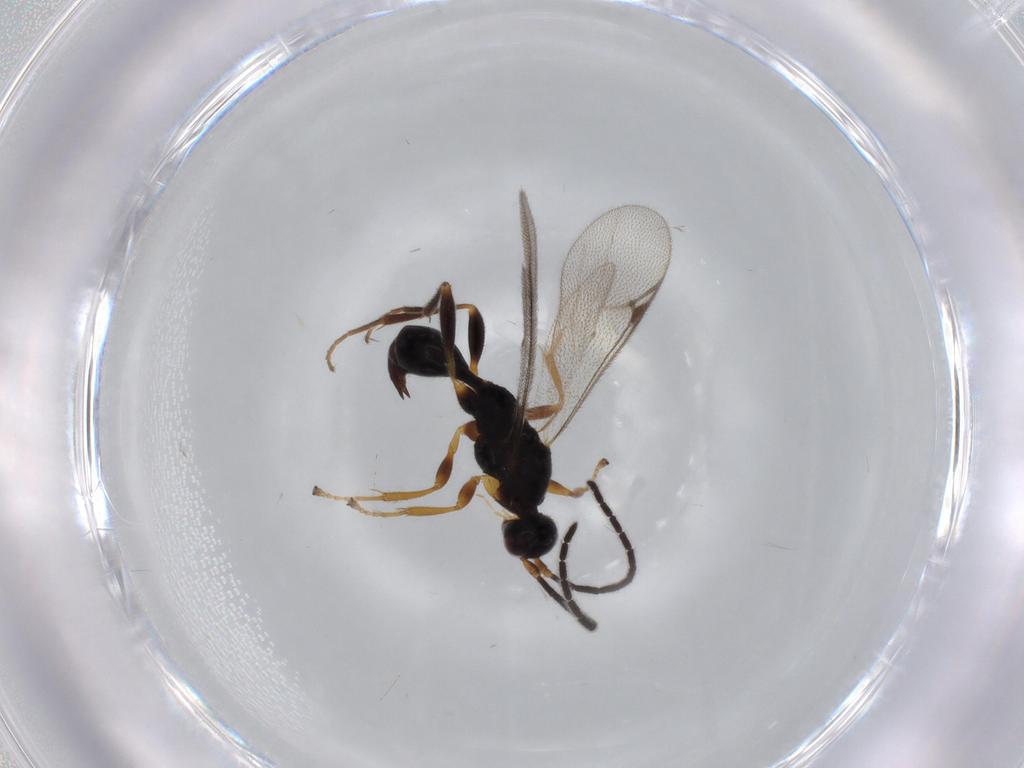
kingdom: Animalia
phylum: Arthropoda
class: Insecta
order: Hymenoptera
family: Proctotrupidae
